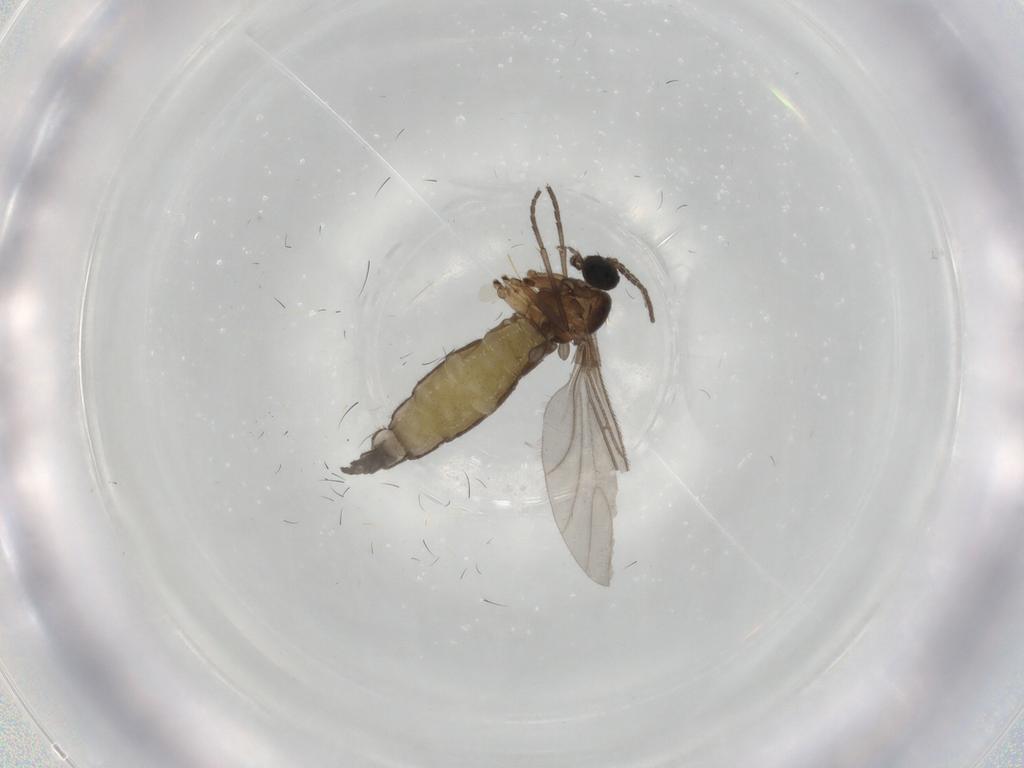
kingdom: Animalia
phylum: Arthropoda
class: Insecta
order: Diptera
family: Sciaridae
